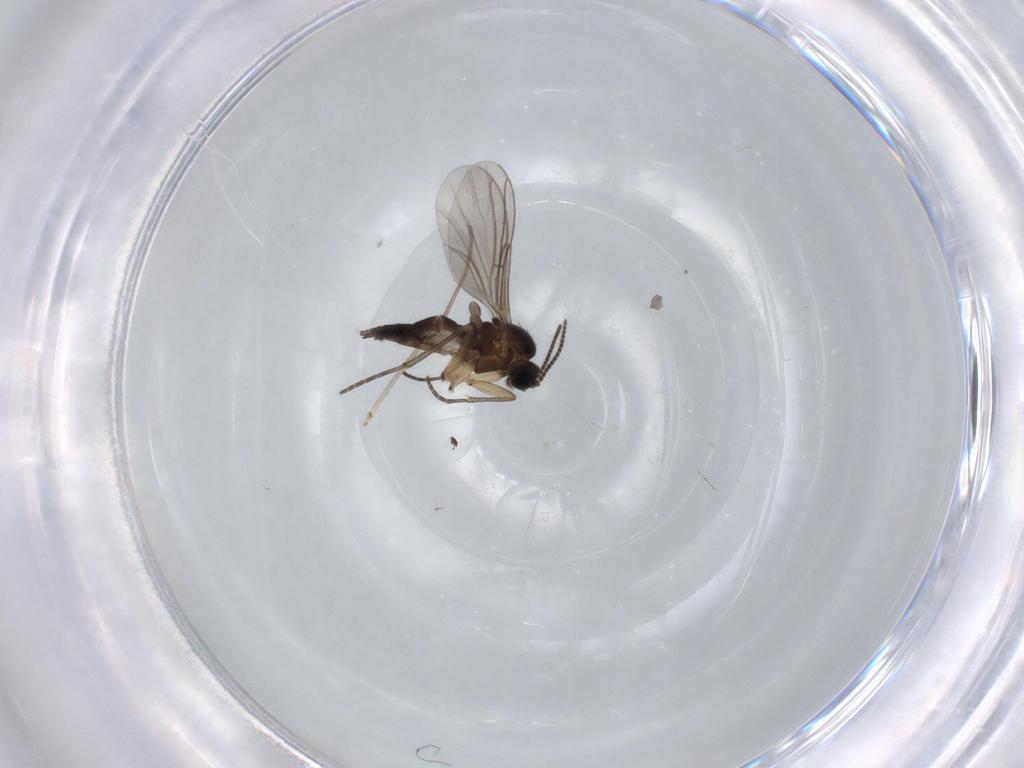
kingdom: Animalia
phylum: Arthropoda
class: Insecta
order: Diptera
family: Sciaridae
